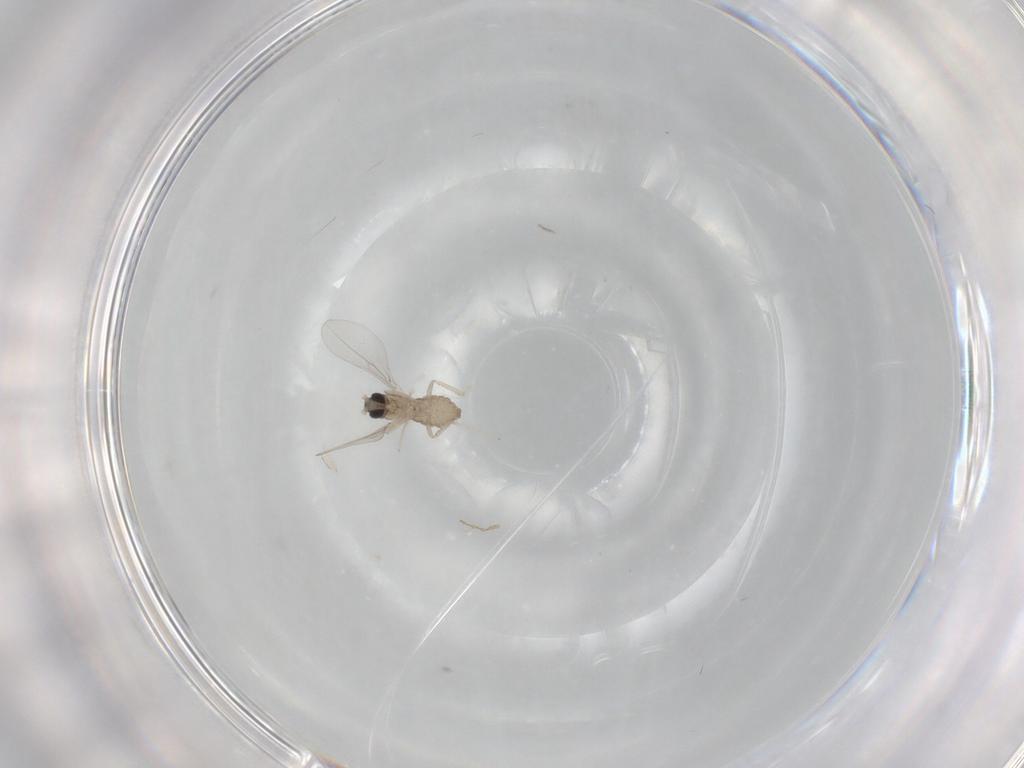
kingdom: Animalia
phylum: Arthropoda
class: Insecta
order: Diptera
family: Cecidomyiidae
